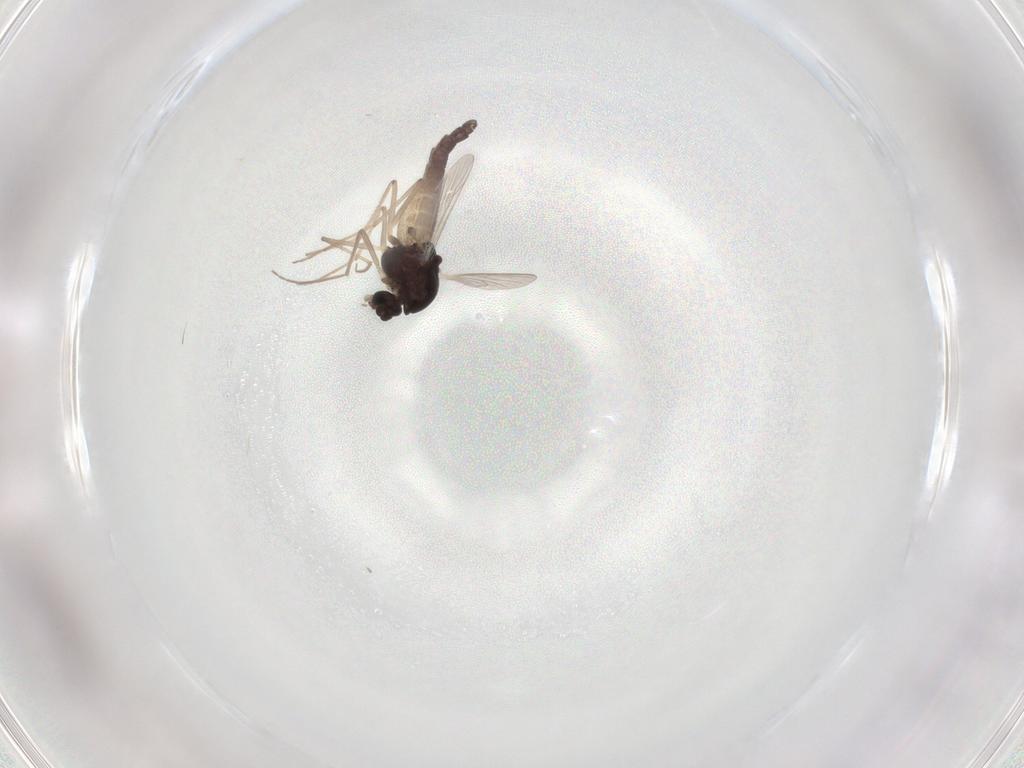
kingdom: Animalia
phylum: Arthropoda
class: Insecta
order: Diptera
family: Chironomidae
